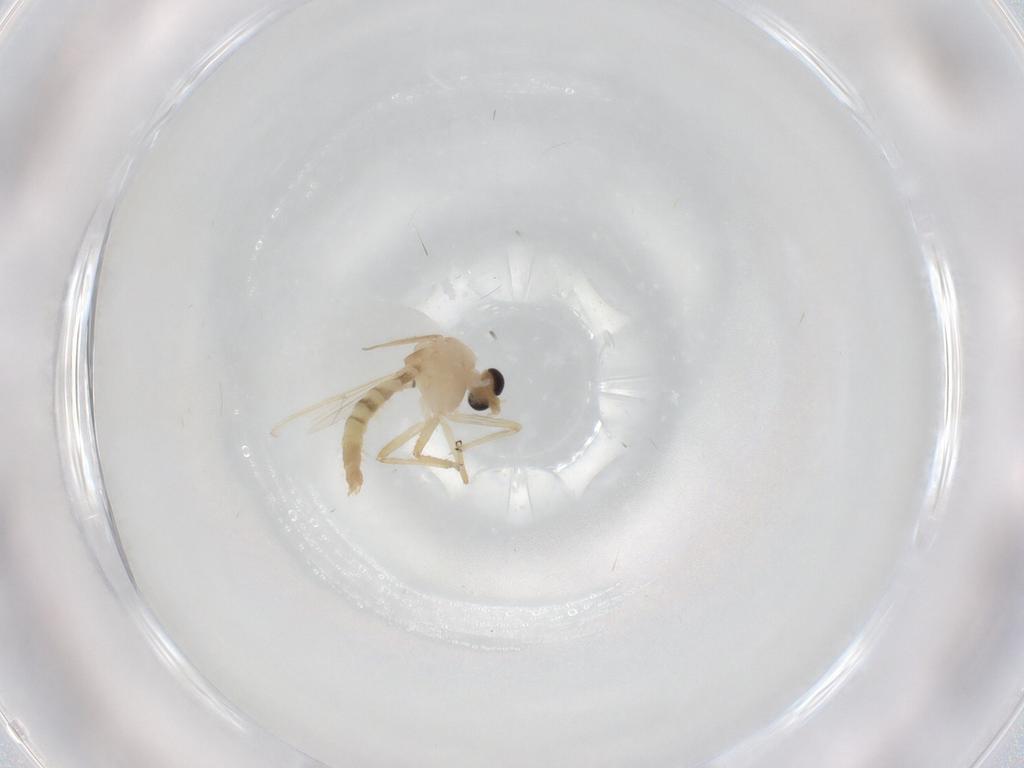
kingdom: Animalia
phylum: Arthropoda
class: Insecta
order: Diptera
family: Chironomidae
